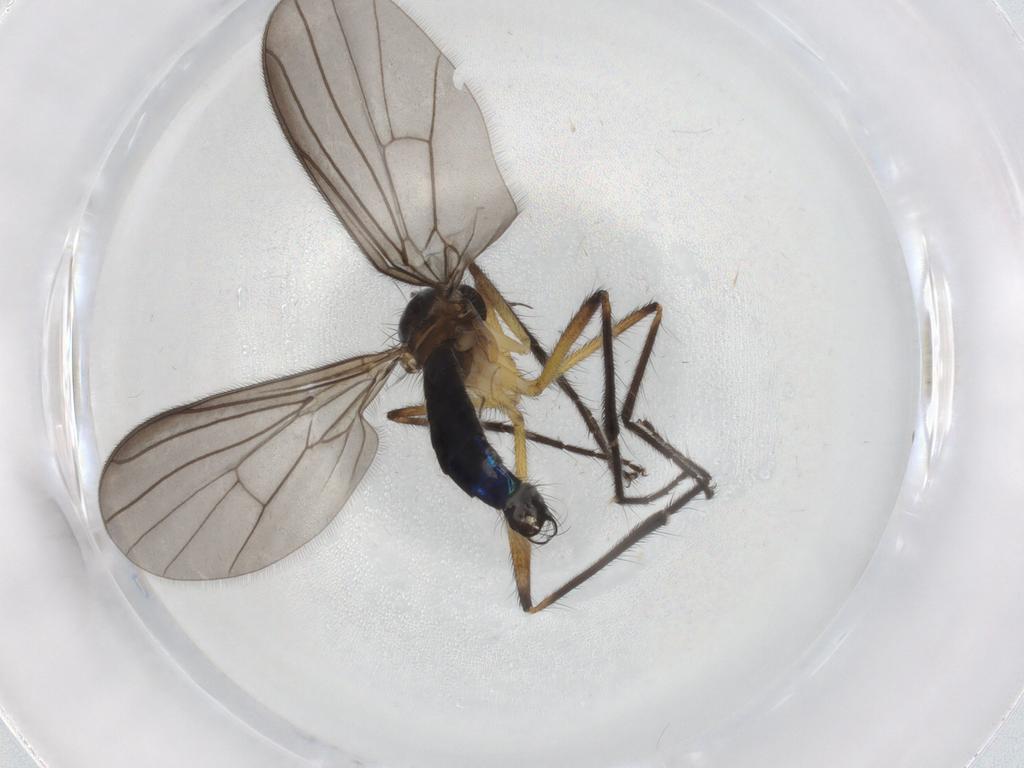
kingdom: Animalia
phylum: Arthropoda
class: Insecta
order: Diptera
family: Empididae
